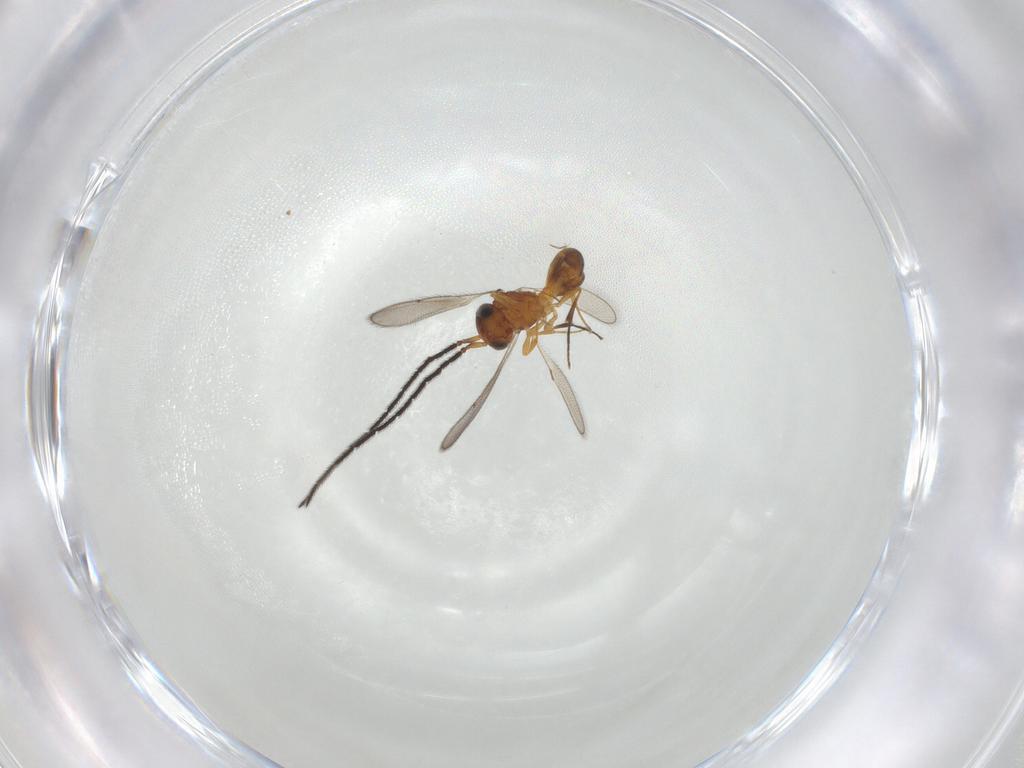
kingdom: Animalia
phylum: Arthropoda
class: Insecta
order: Hymenoptera
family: Scelionidae
